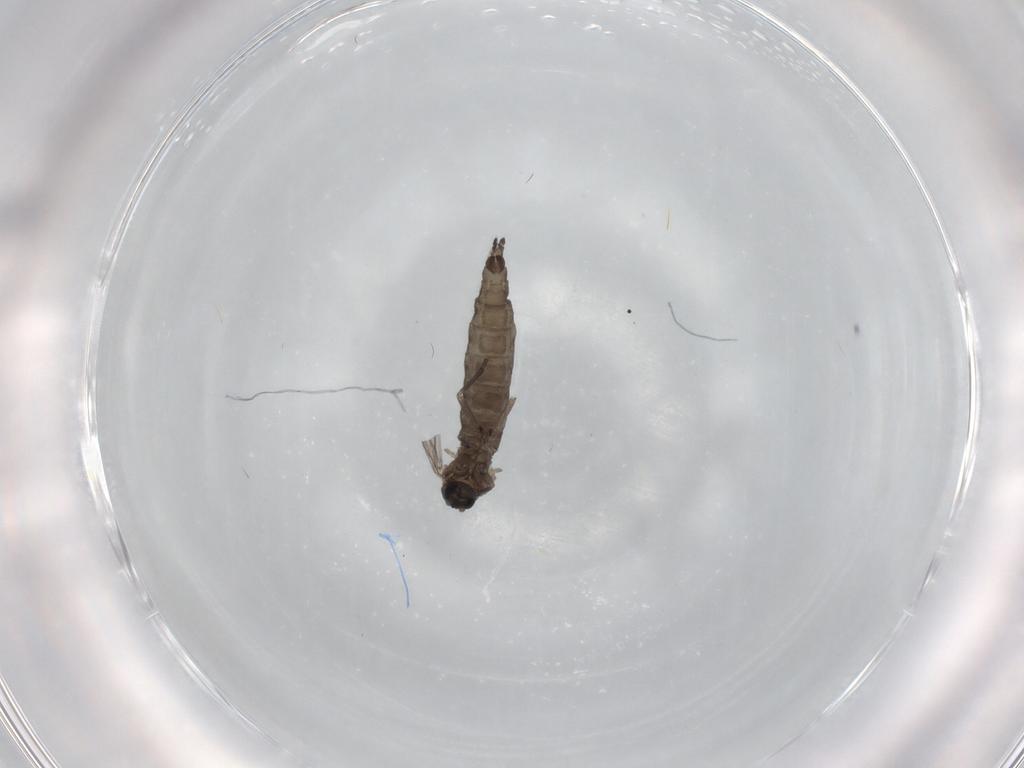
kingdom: Animalia
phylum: Arthropoda
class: Insecta
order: Diptera
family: Sciaridae
